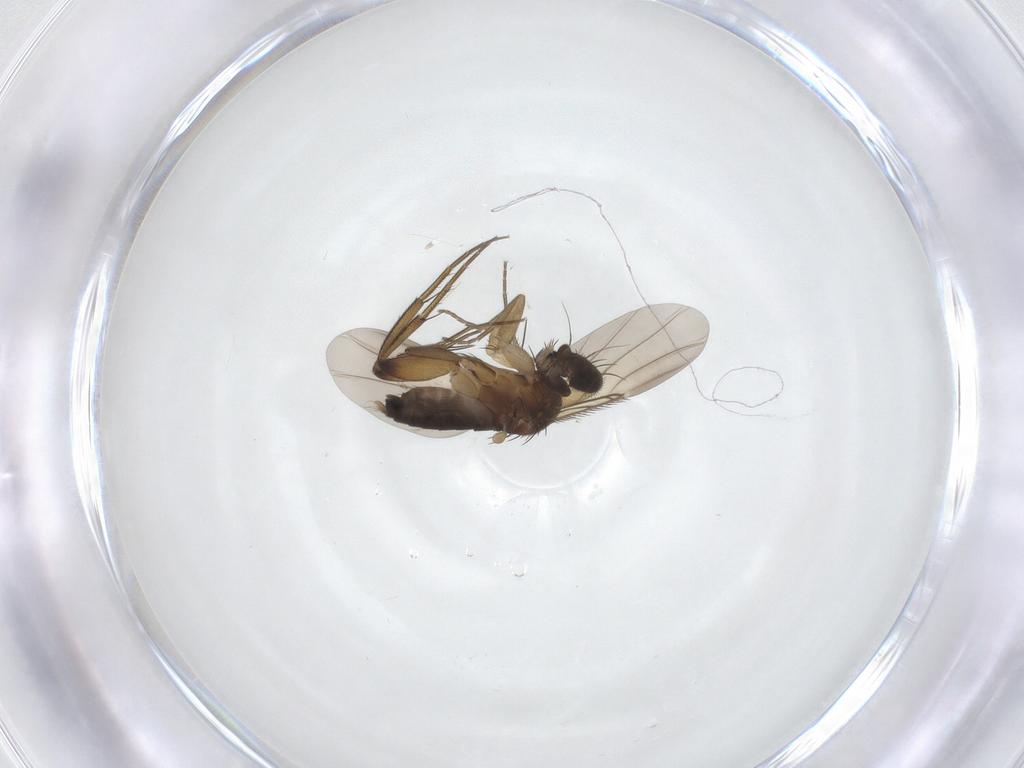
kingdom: Animalia
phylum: Arthropoda
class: Insecta
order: Diptera
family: Phoridae
